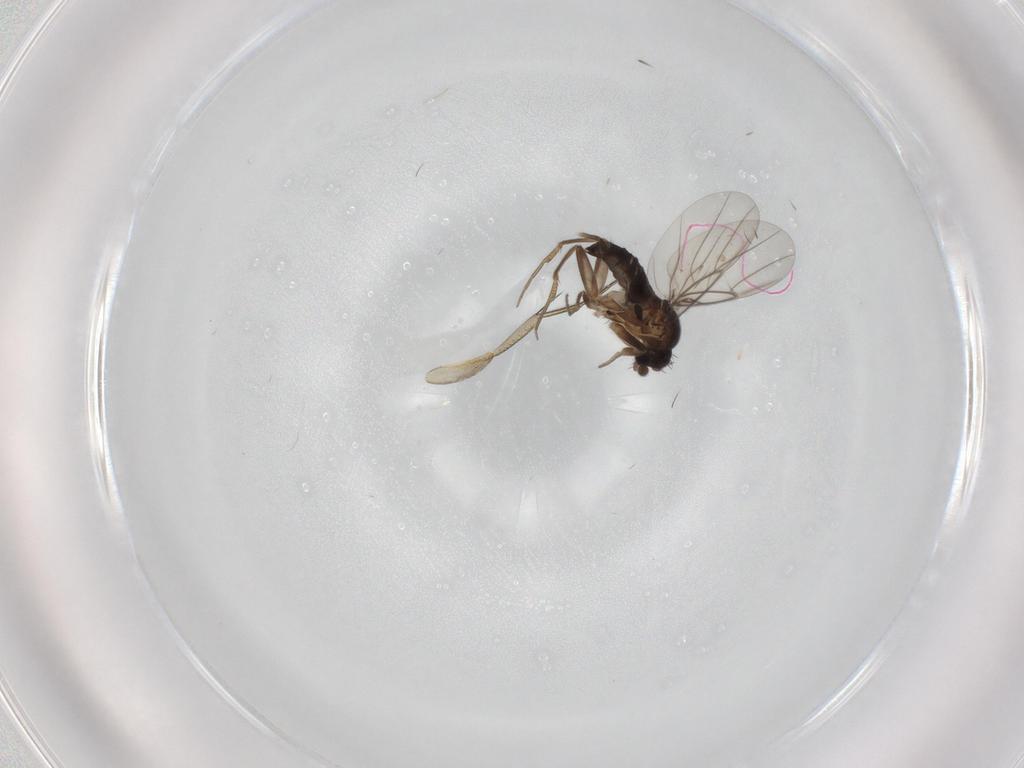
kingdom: Animalia
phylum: Arthropoda
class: Insecta
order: Diptera
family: Phoridae
